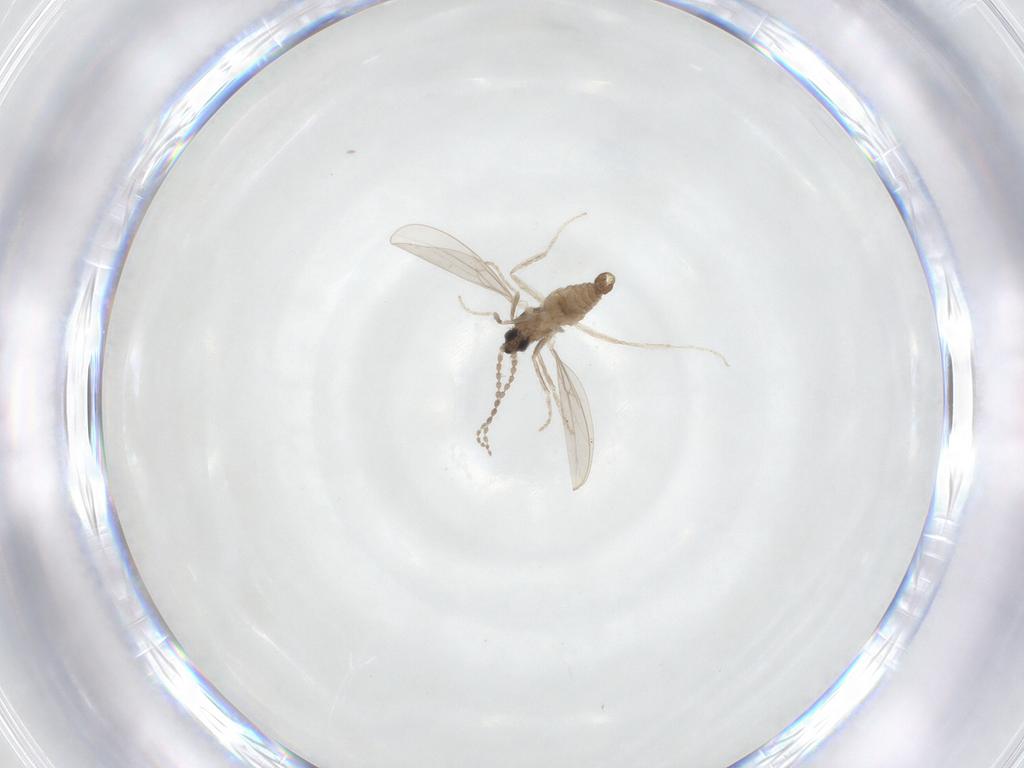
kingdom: Animalia
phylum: Arthropoda
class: Insecta
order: Diptera
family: Cecidomyiidae
